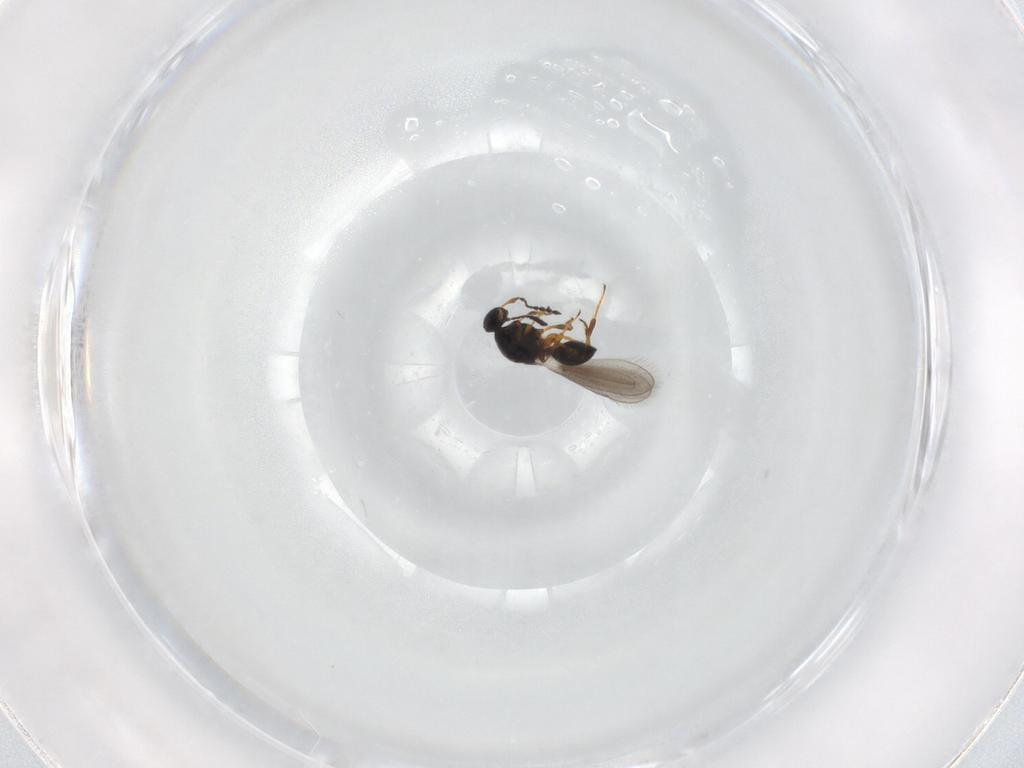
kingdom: Animalia
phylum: Arthropoda
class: Insecta
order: Hymenoptera
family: Platygastridae
